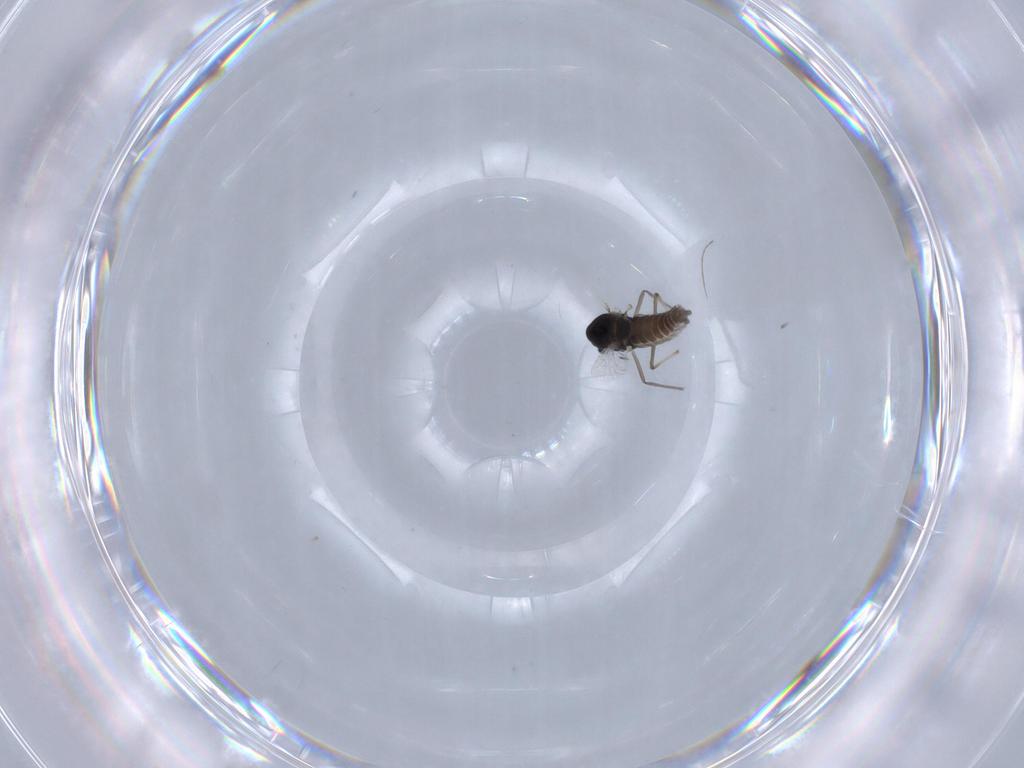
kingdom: Animalia
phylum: Arthropoda
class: Insecta
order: Diptera
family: Chironomidae
